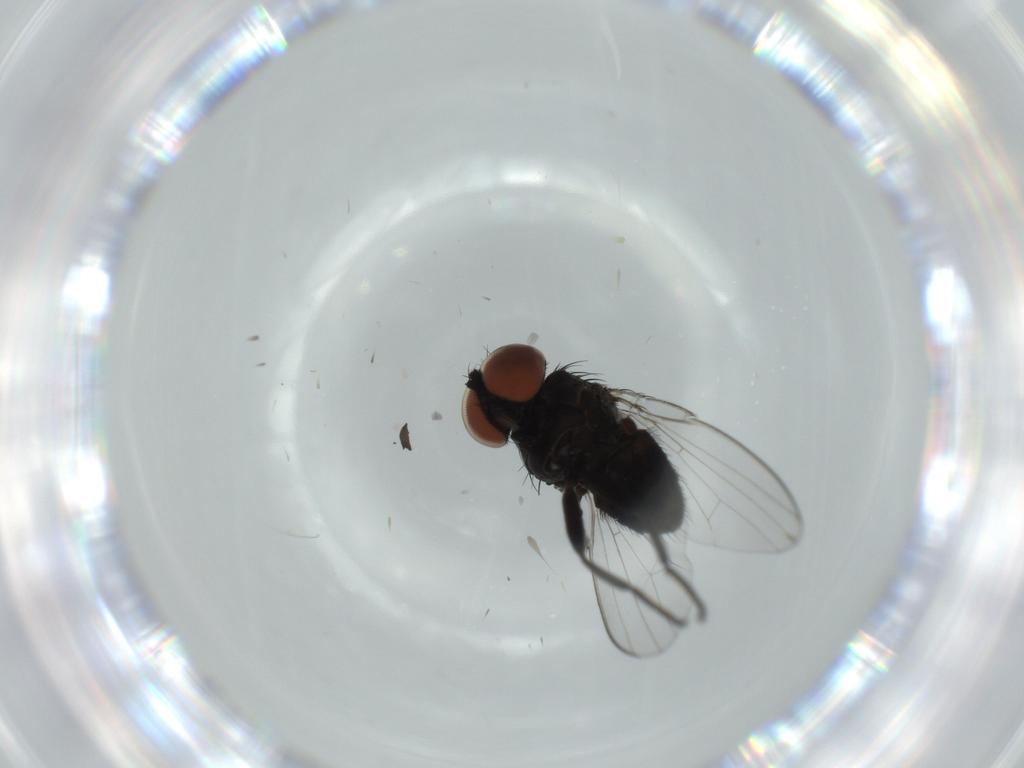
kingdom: Animalia
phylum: Arthropoda
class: Insecta
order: Diptera
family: Milichiidae
